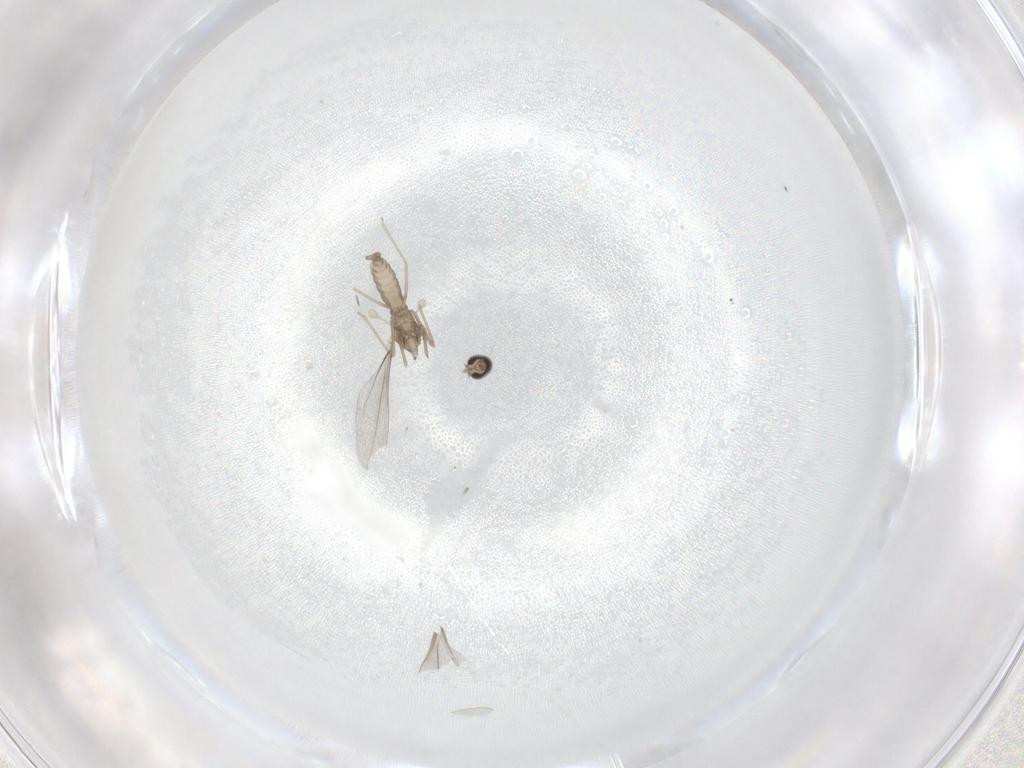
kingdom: Animalia
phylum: Arthropoda
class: Insecta
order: Diptera
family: Cecidomyiidae
